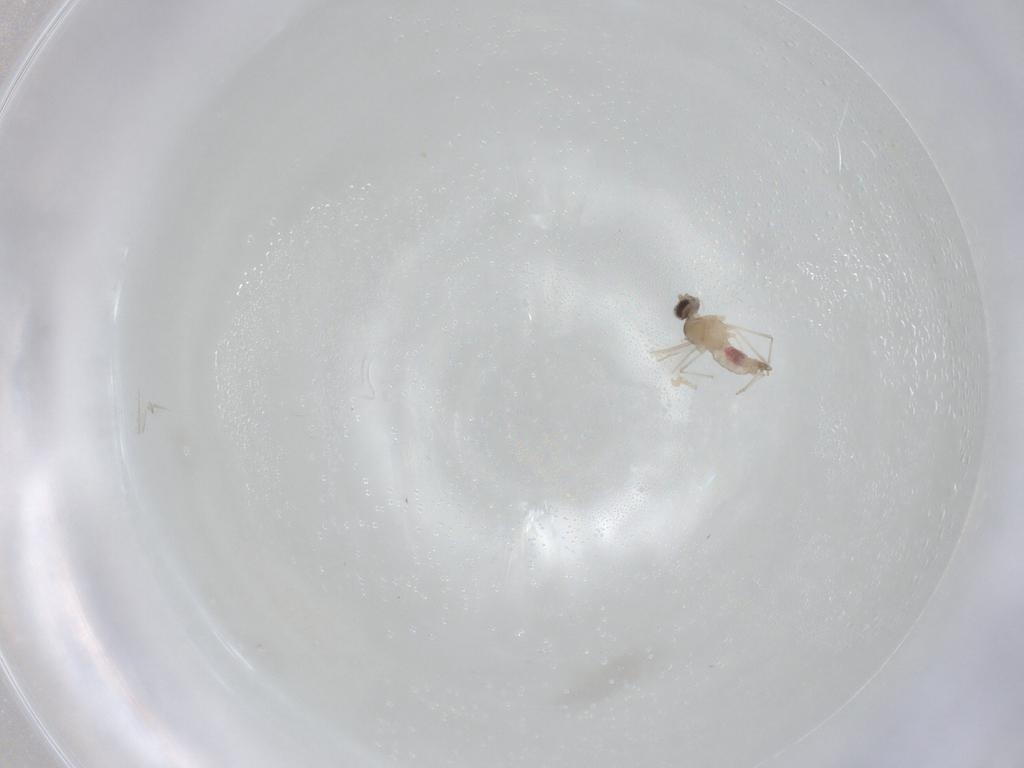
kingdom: Animalia
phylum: Arthropoda
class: Insecta
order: Diptera
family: Cecidomyiidae
